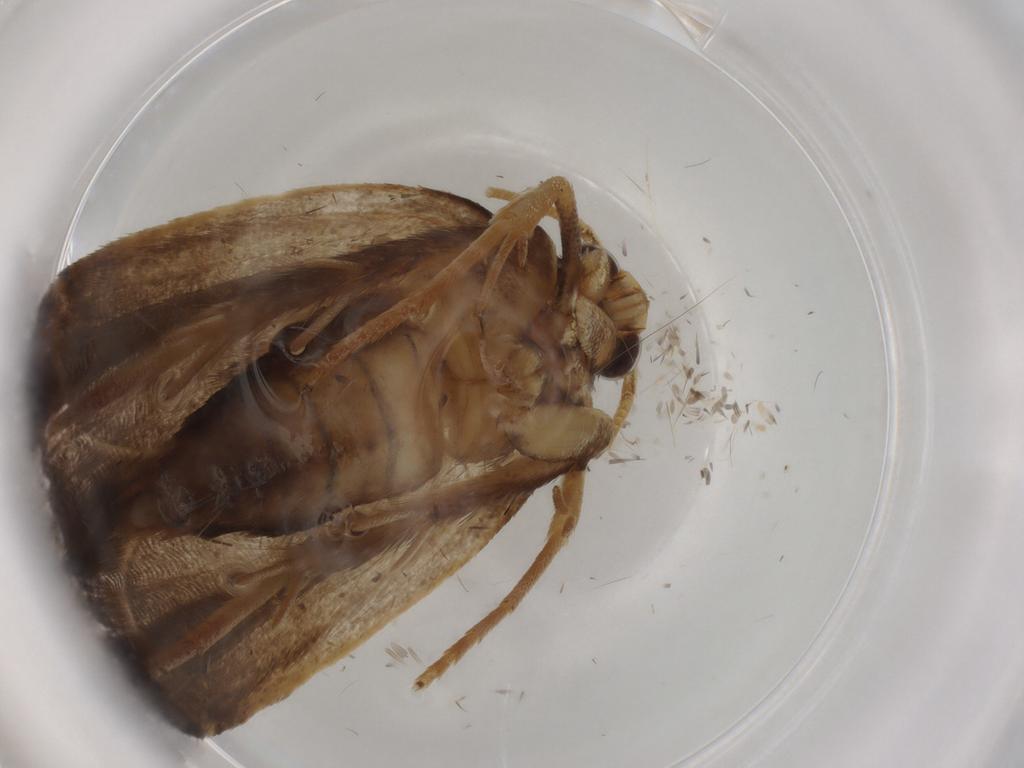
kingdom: Animalia
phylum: Arthropoda
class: Insecta
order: Lepidoptera
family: Lecithoceridae
